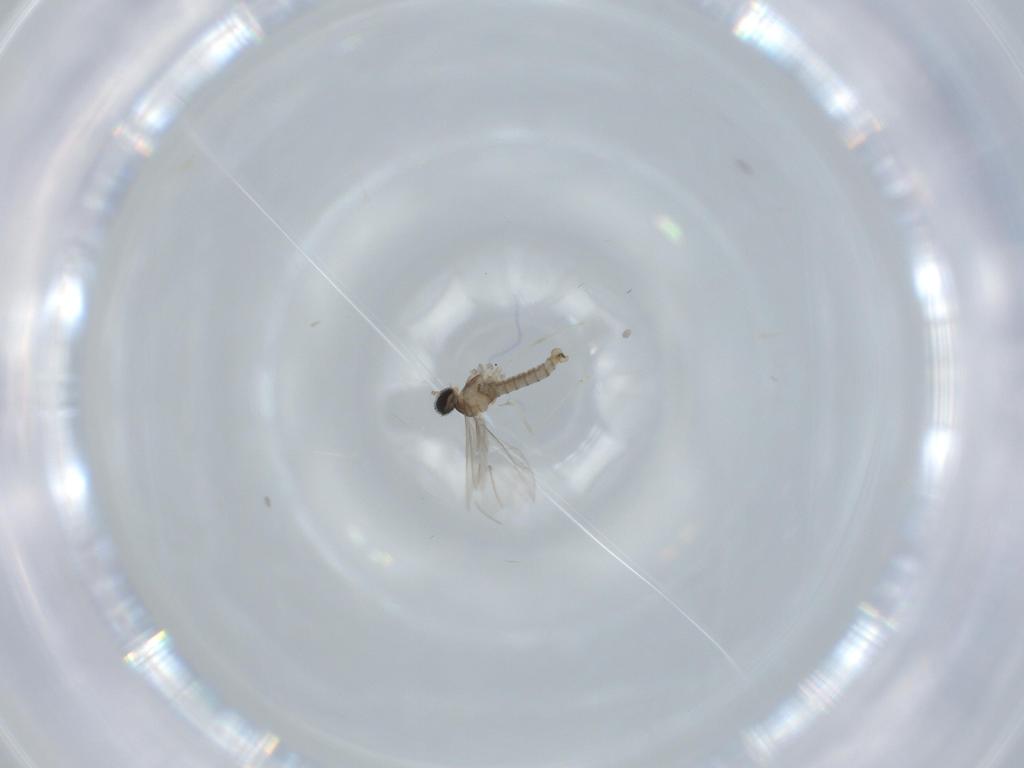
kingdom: Animalia
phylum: Arthropoda
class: Insecta
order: Diptera
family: Cecidomyiidae
